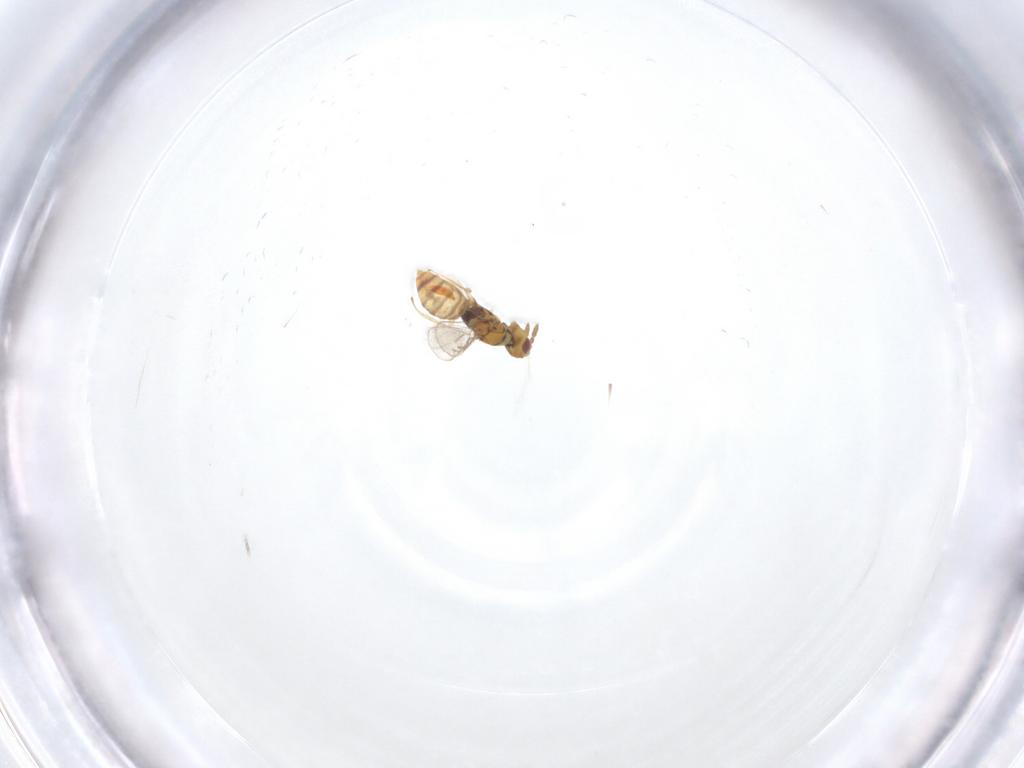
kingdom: Animalia
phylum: Arthropoda
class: Insecta
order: Hymenoptera
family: Eulophidae
